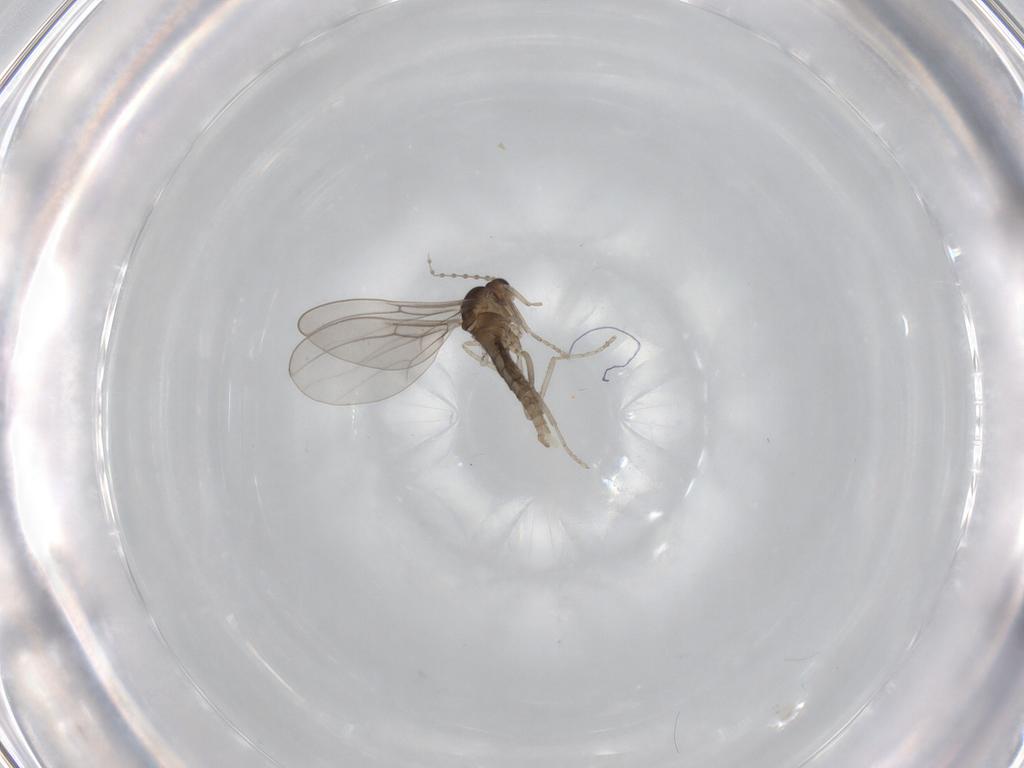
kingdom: Animalia
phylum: Arthropoda
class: Insecta
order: Diptera
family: Cecidomyiidae
